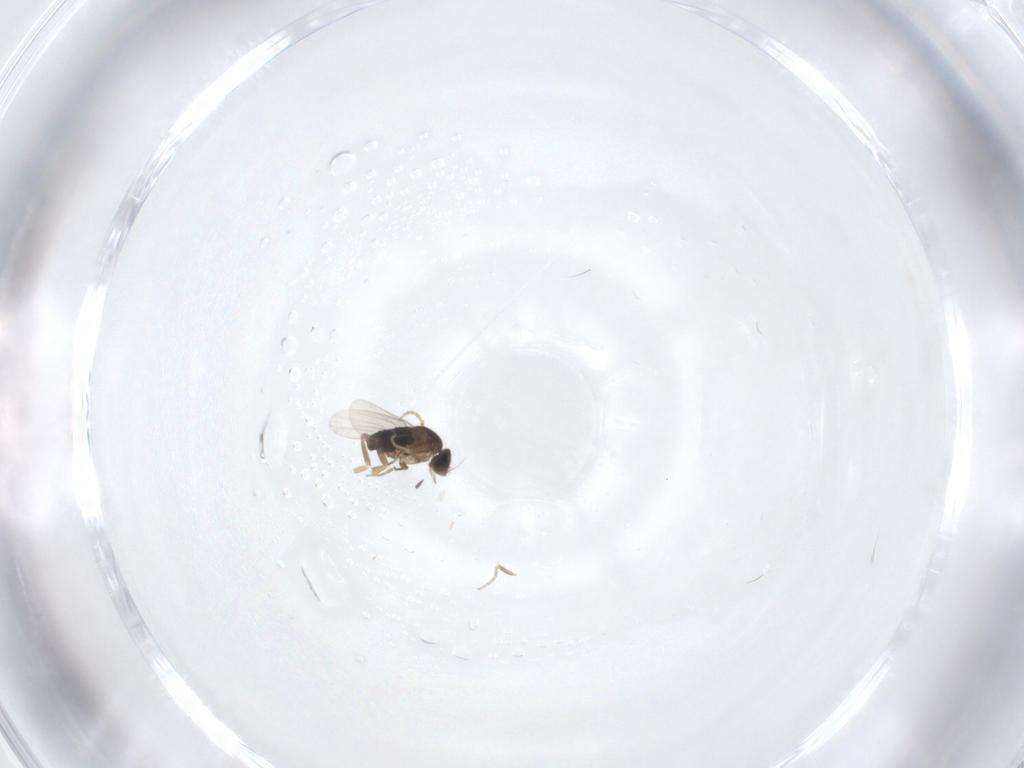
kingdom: Animalia
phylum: Arthropoda
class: Insecta
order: Diptera
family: Phoridae
